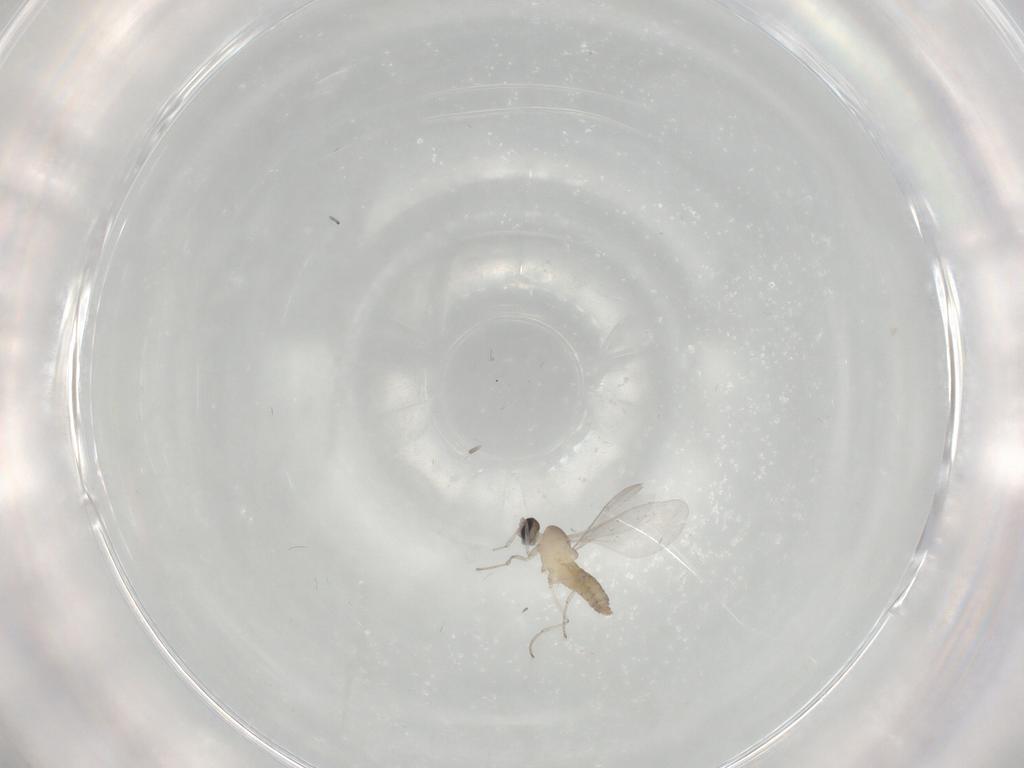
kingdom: Animalia
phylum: Arthropoda
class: Insecta
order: Diptera
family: Cecidomyiidae
